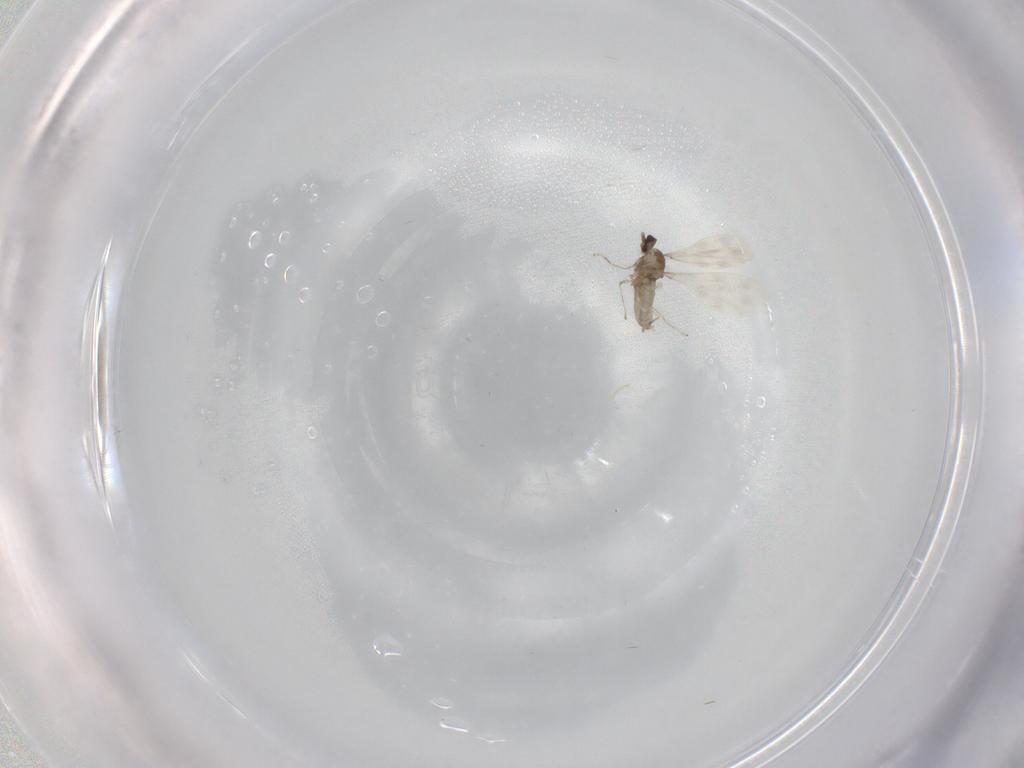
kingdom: Animalia
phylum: Arthropoda
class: Insecta
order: Diptera
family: Cecidomyiidae
